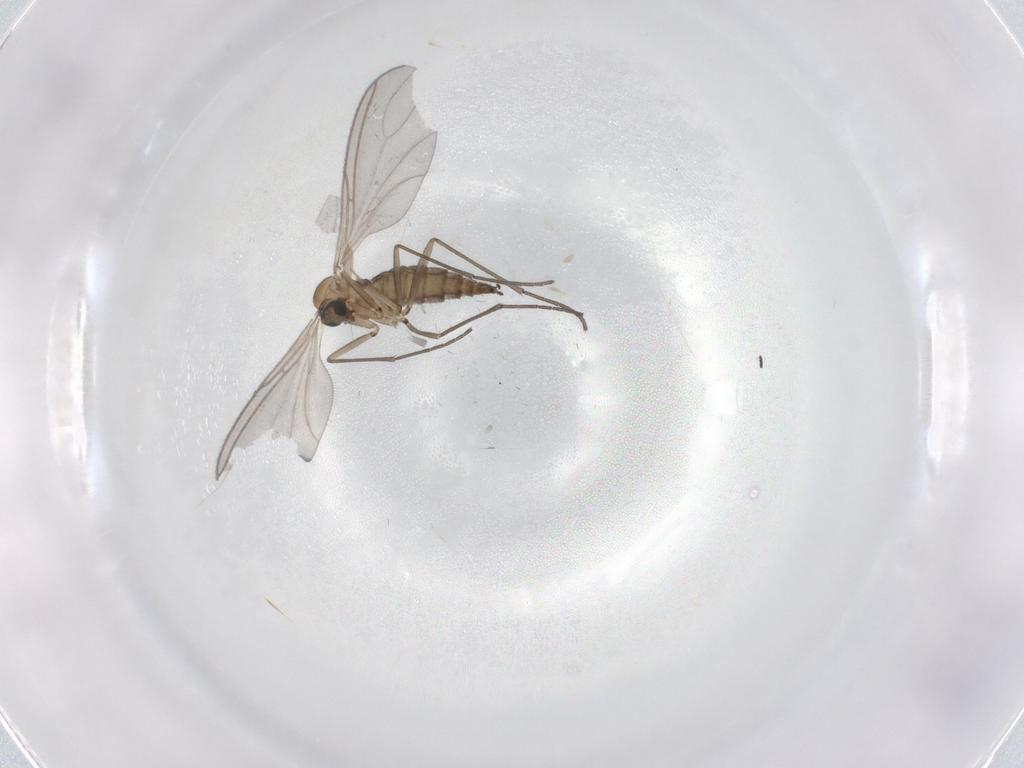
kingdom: Animalia
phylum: Arthropoda
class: Insecta
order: Diptera
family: Sciaridae
